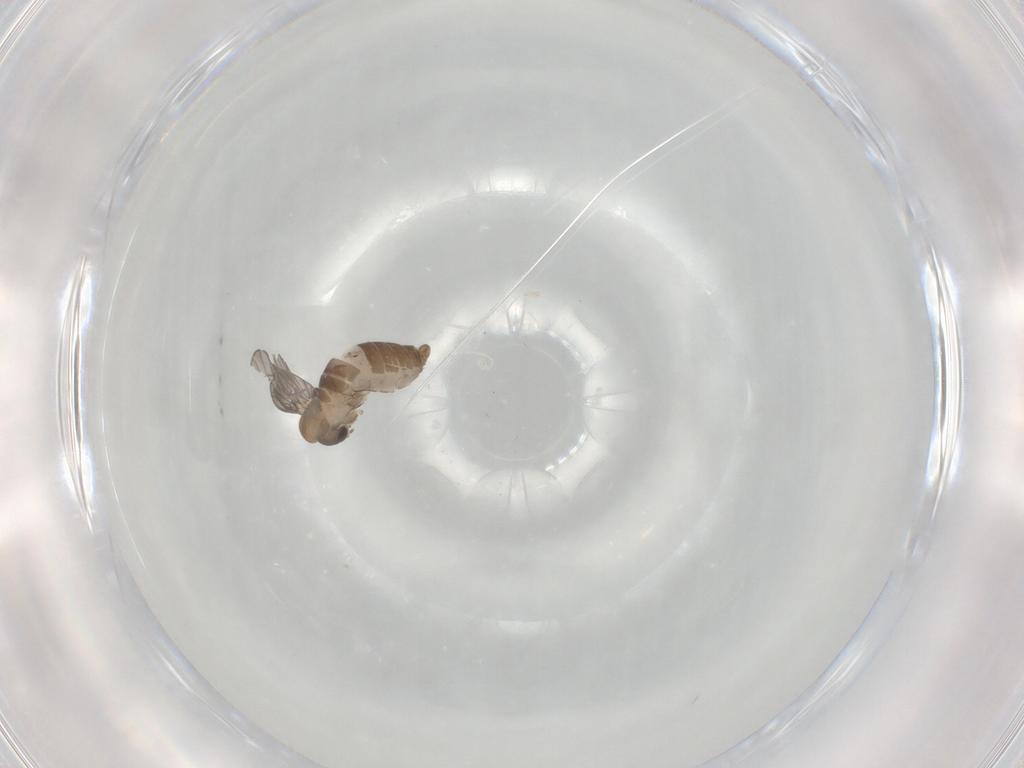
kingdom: Animalia
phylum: Arthropoda
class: Insecta
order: Diptera
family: Psychodidae
